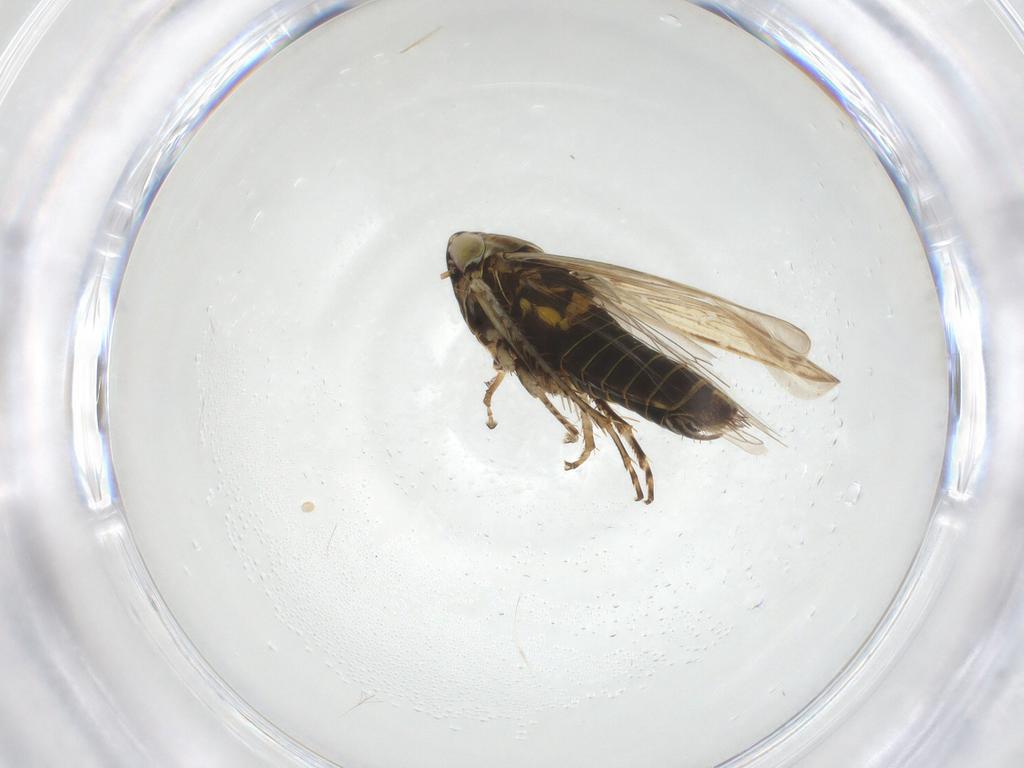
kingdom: Animalia
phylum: Arthropoda
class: Insecta
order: Hemiptera
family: Cicadellidae
